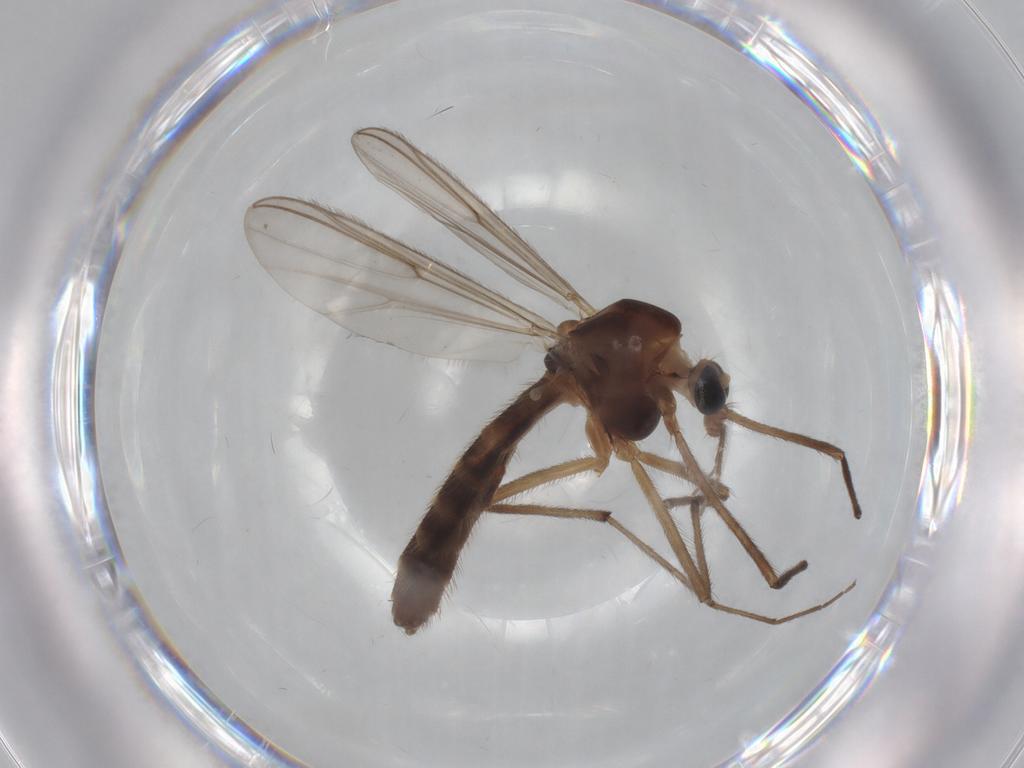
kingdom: Animalia
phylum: Arthropoda
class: Insecta
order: Diptera
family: Chironomidae
